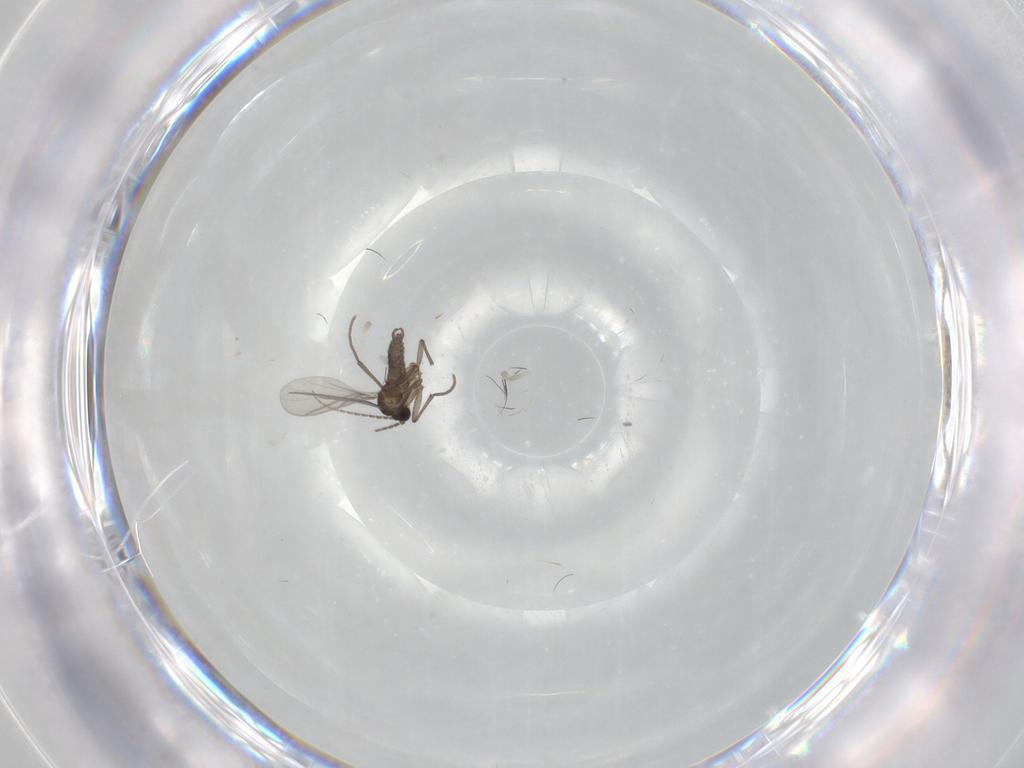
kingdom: Animalia
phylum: Arthropoda
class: Insecta
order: Diptera
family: Sciaridae
